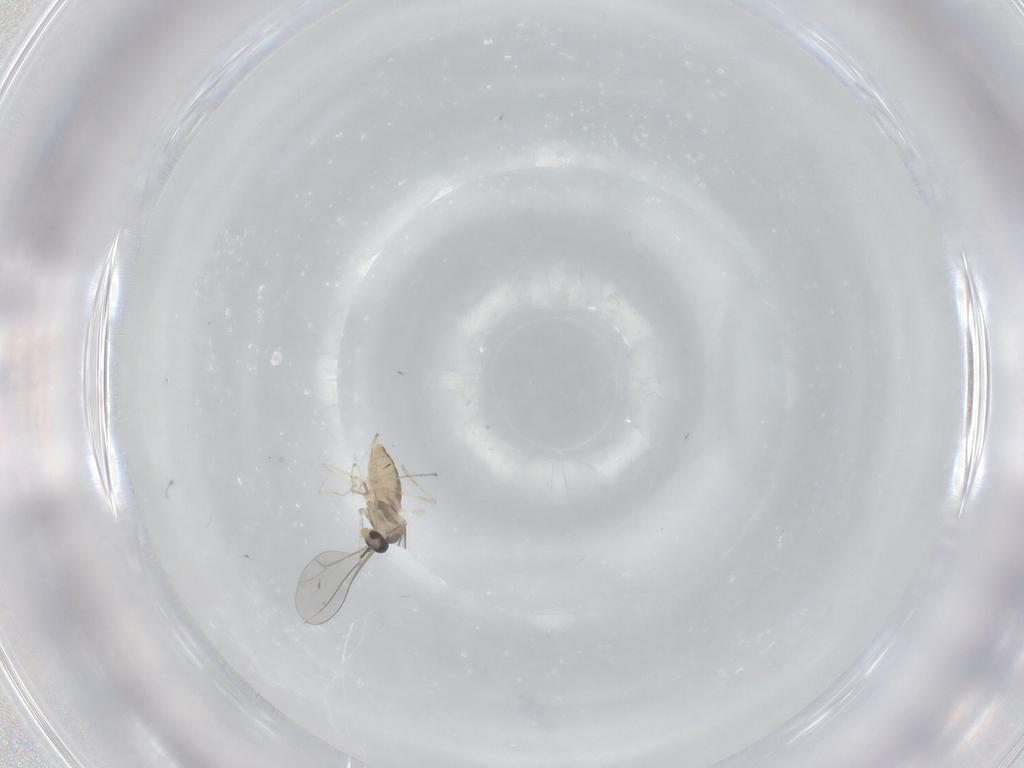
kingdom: Animalia
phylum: Arthropoda
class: Insecta
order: Diptera
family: Cecidomyiidae
